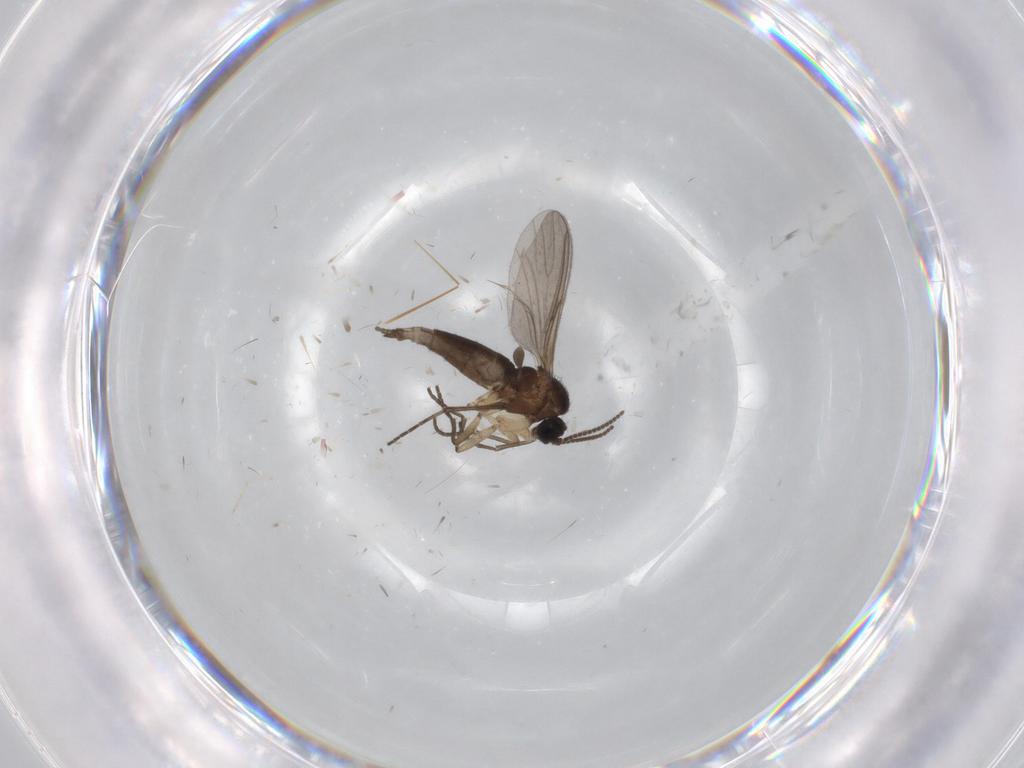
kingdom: Animalia
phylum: Arthropoda
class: Insecta
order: Diptera
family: Sciaridae
